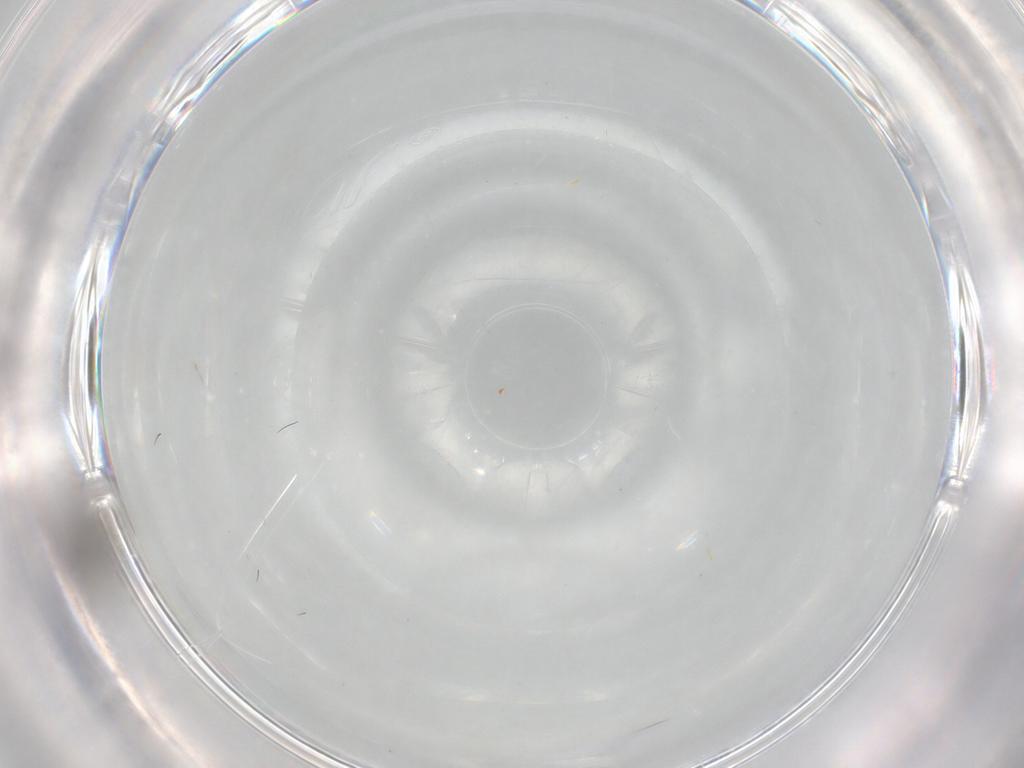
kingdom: Animalia
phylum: Arthropoda
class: Insecta
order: Diptera
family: Sciaridae
